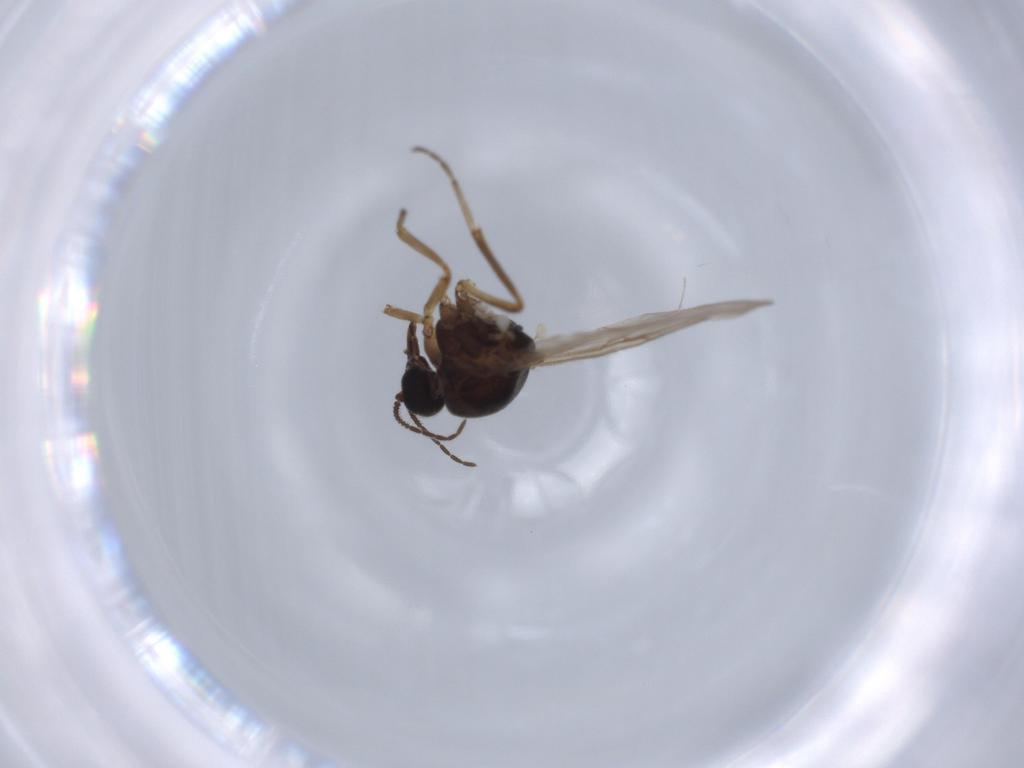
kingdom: Animalia
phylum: Arthropoda
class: Insecta
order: Diptera
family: Ceratopogonidae
